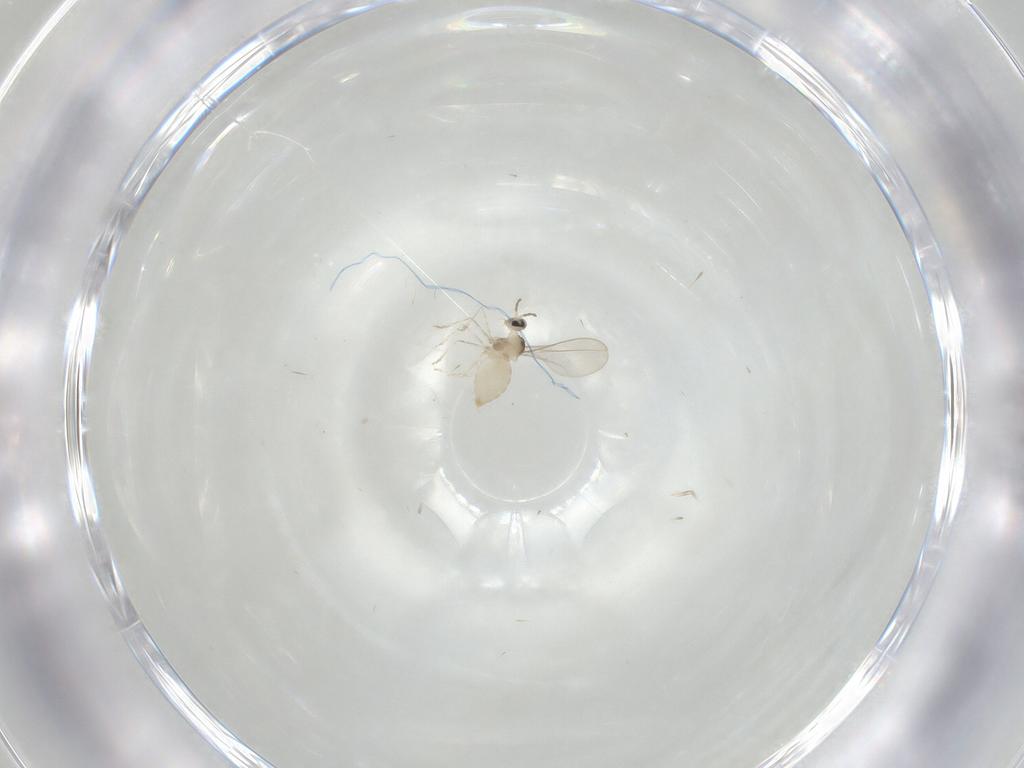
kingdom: Animalia
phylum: Arthropoda
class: Insecta
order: Diptera
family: Cecidomyiidae
